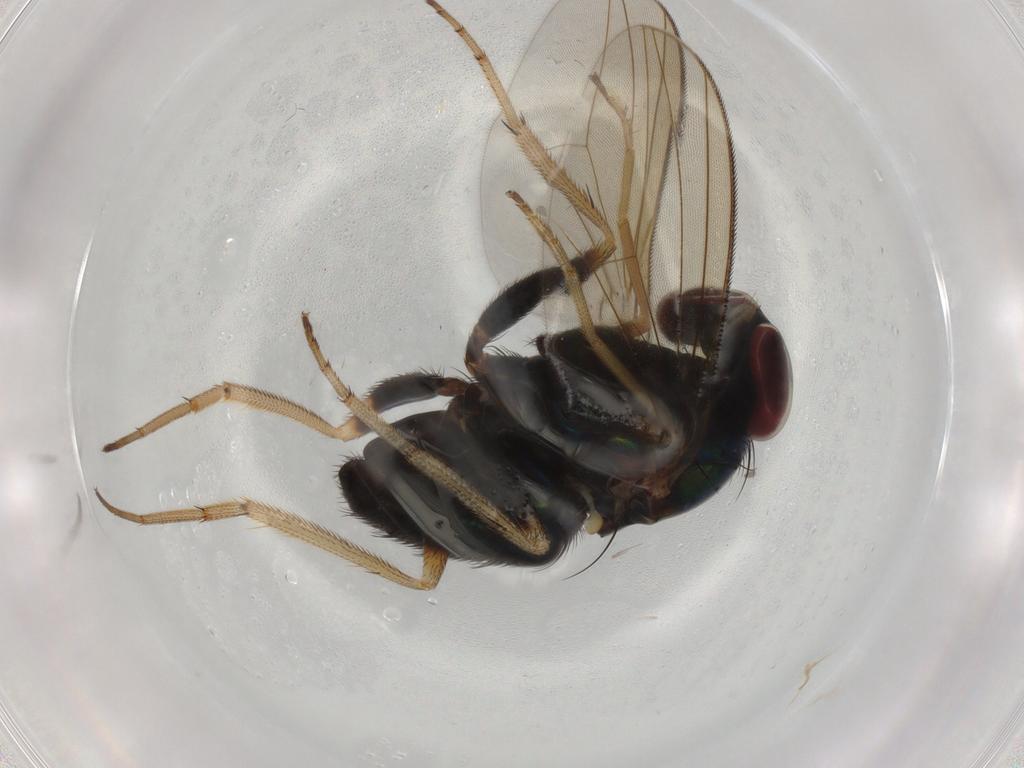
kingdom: Animalia
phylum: Arthropoda
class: Insecta
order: Diptera
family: Dolichopodidae
